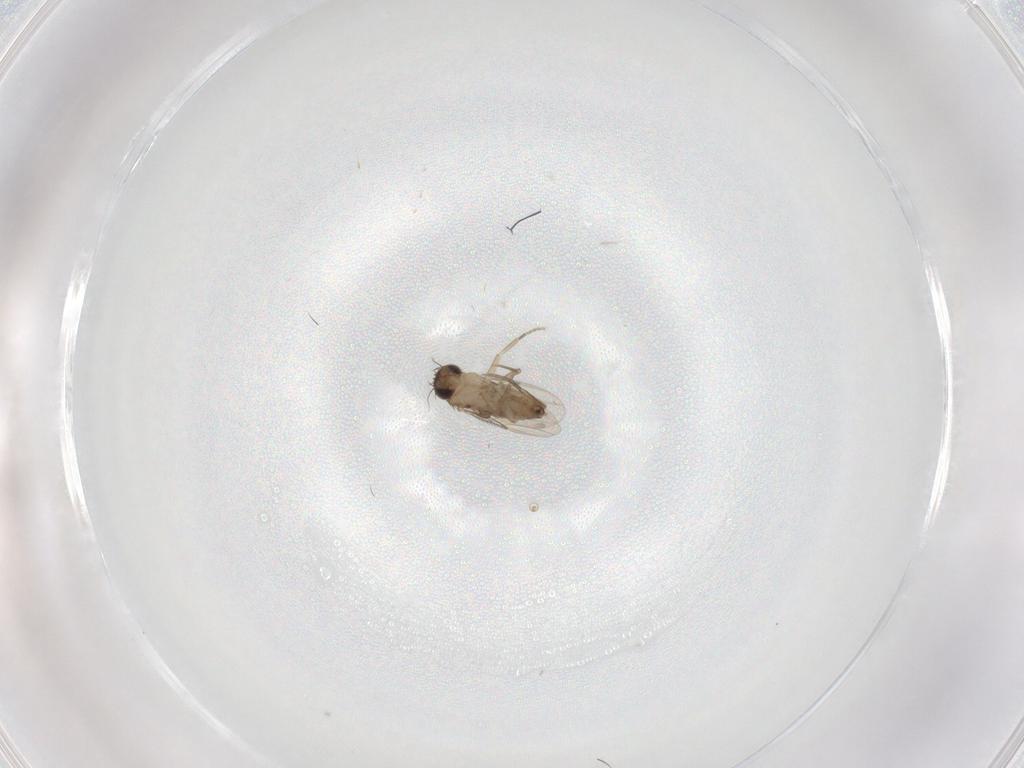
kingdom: Animalia
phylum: Arthropoda
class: Insecta
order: Diptera
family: Phoridae
